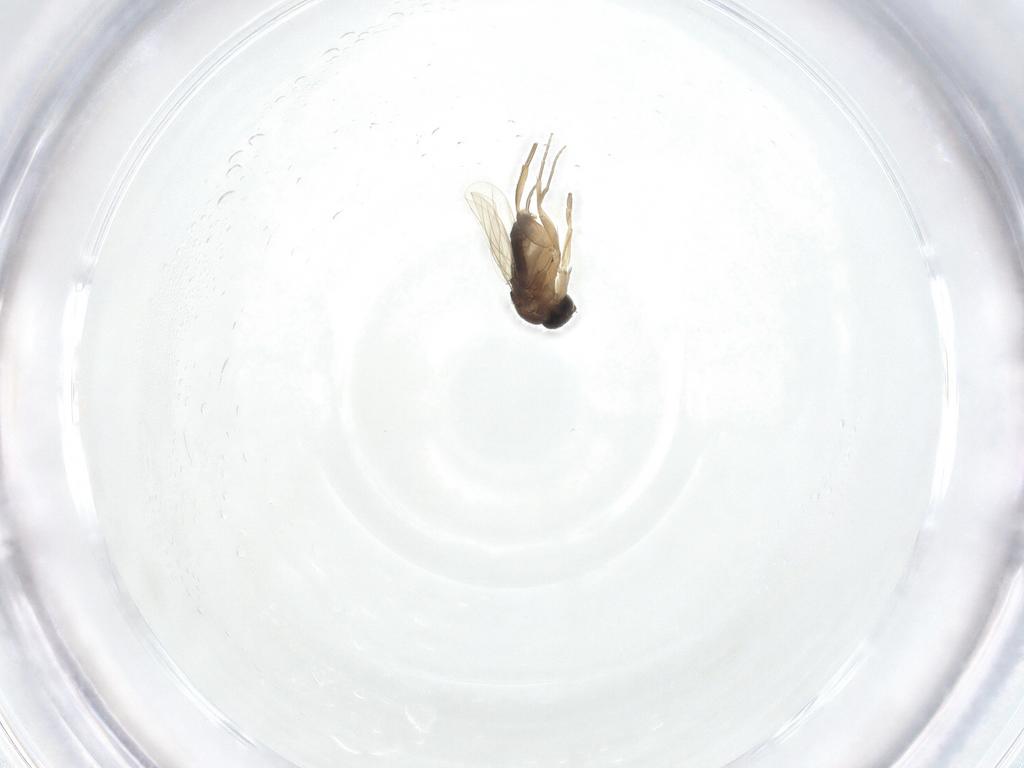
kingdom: Animalia
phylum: Arthropoda
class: Insecta
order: Diptera
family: Phoridae
